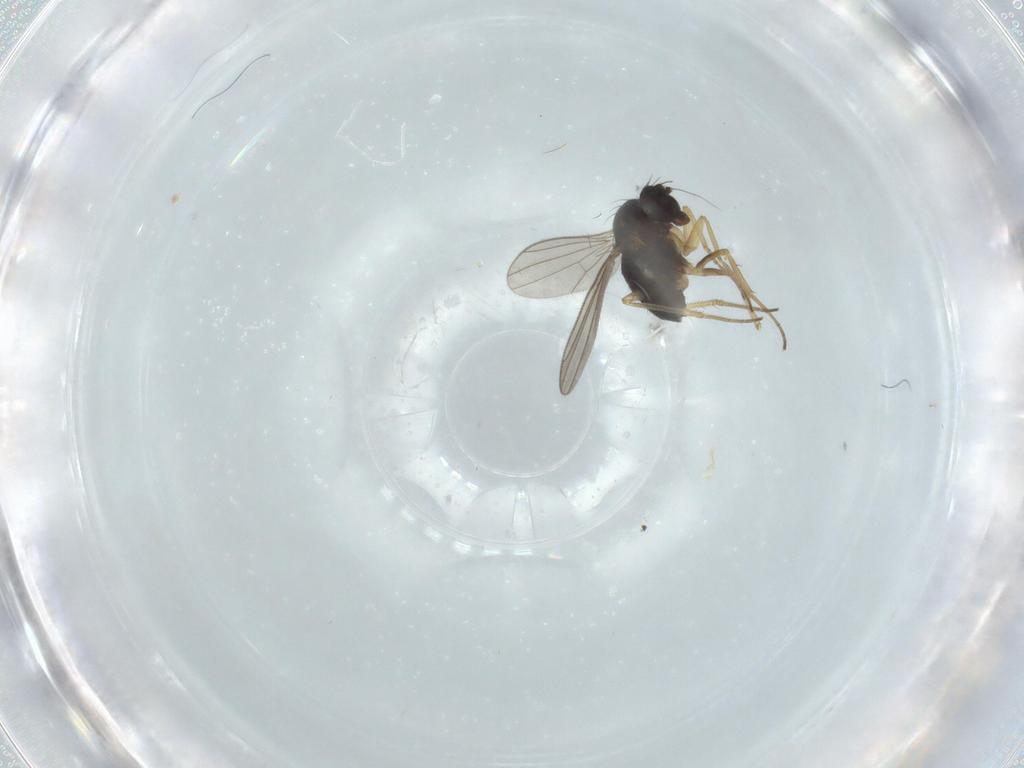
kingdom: Animalia
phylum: Arthropoda
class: Insecta
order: Diptera
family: Dolichopodidae
